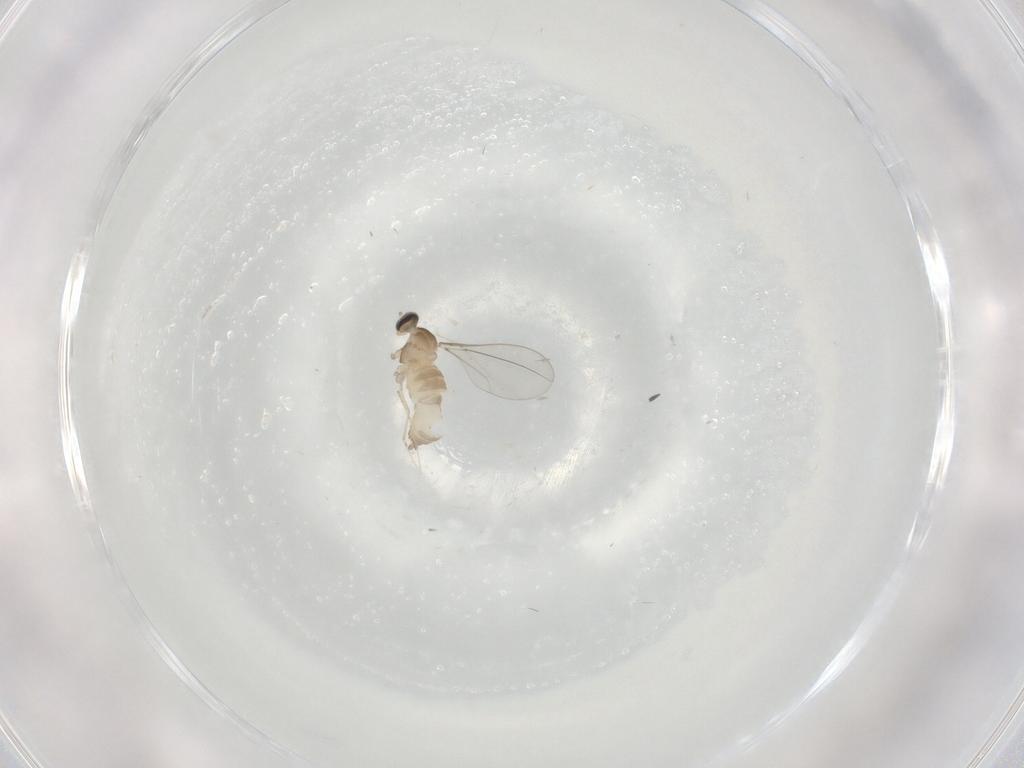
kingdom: Animalia
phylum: Arthropoda
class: Insecta
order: Diptera
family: Cecidomyiidae
